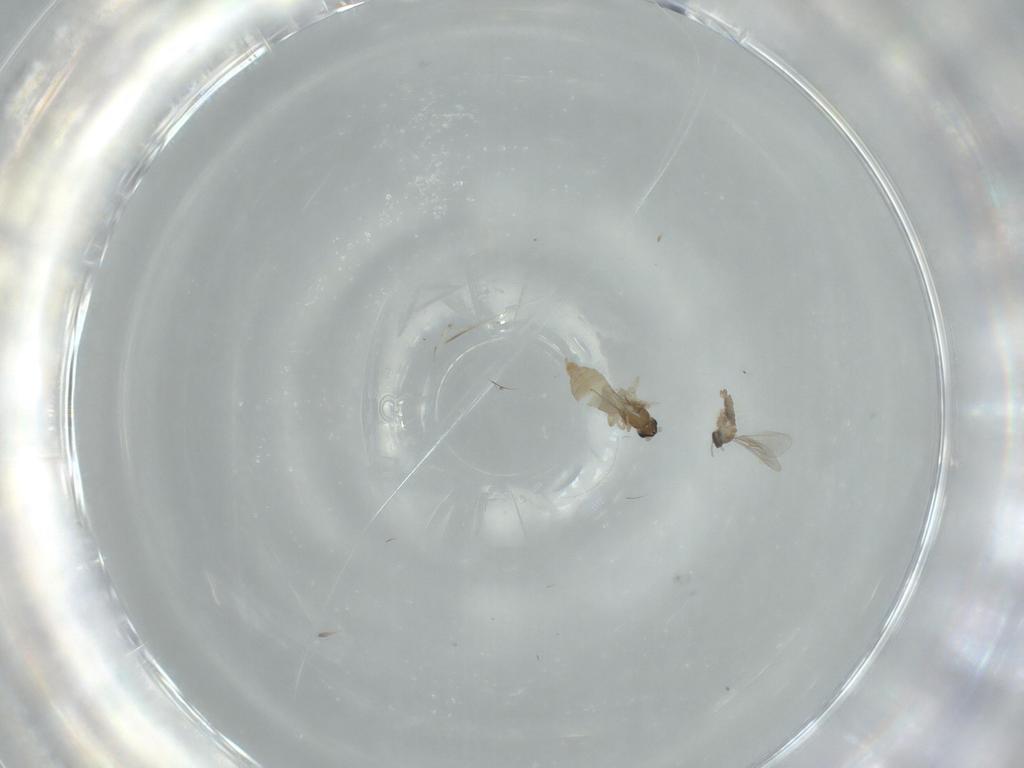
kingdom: Animalia
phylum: Arthropoda
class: Insecta
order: Diptera
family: Cecidomyiidae
